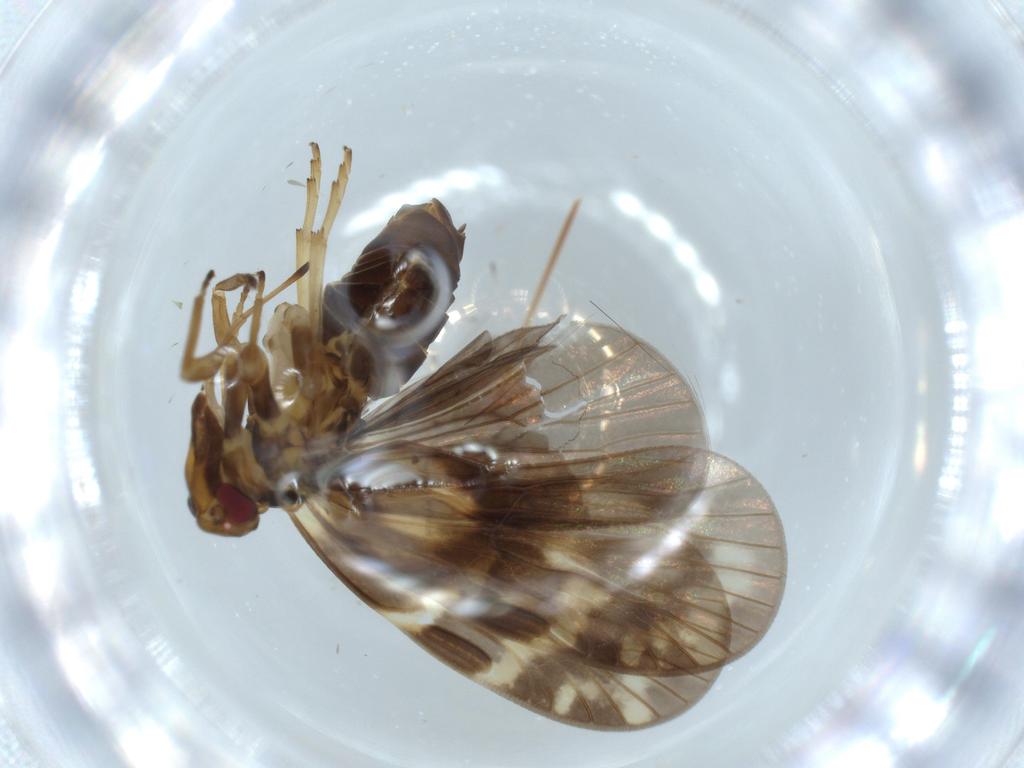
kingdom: Animalia
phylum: Arthropoda
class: Insecta
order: Hemiptera
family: Cixiidae
